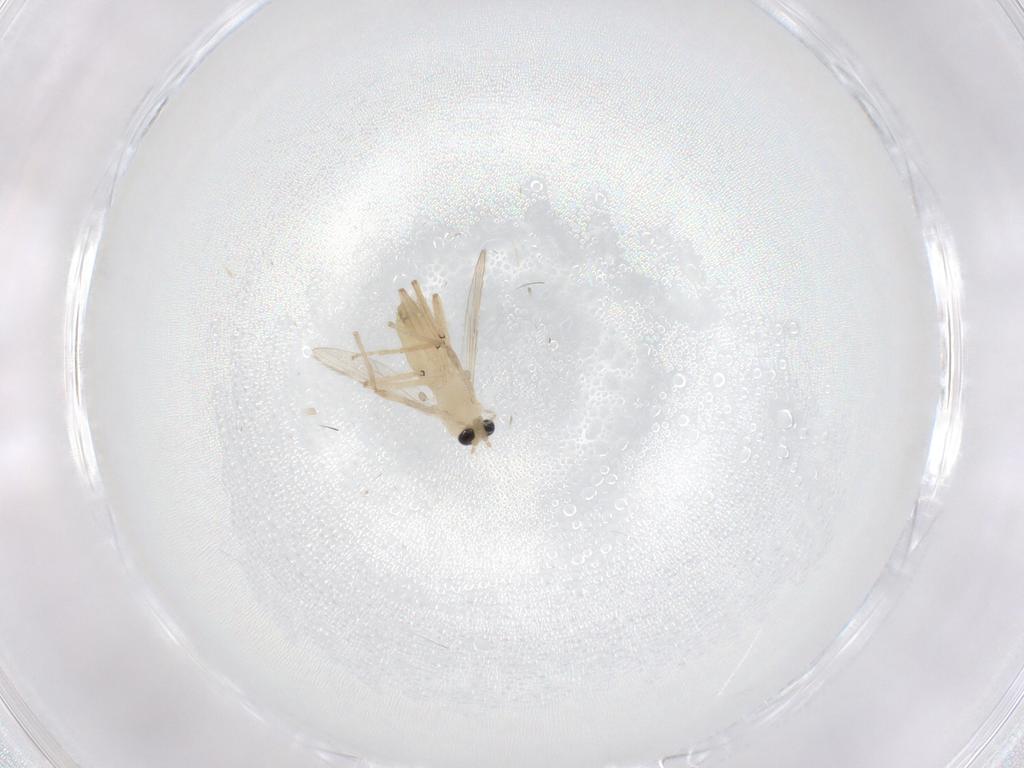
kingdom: Animalia
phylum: Arthropoda
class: Insecta
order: Diptera
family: Chironomidae
